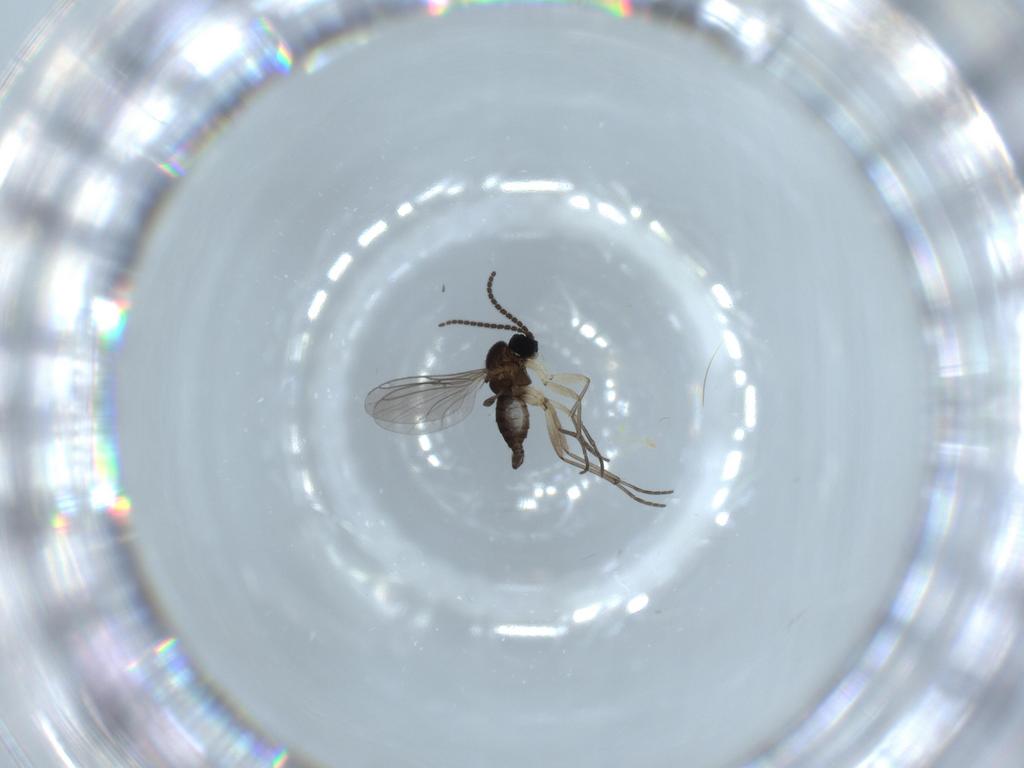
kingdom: Animalia
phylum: Arthropoda
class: Insecta
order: Diptera
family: Sciaridae
